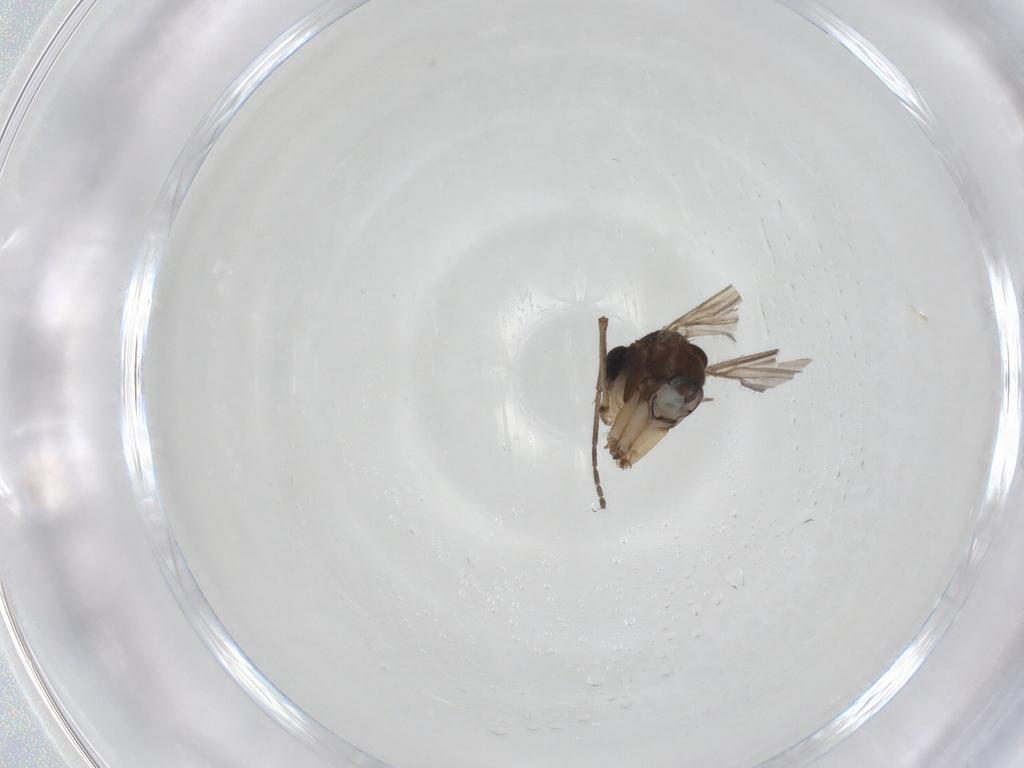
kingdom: Animalia
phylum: Arthropoda
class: Insecta
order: Diptera
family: Sciaridae
